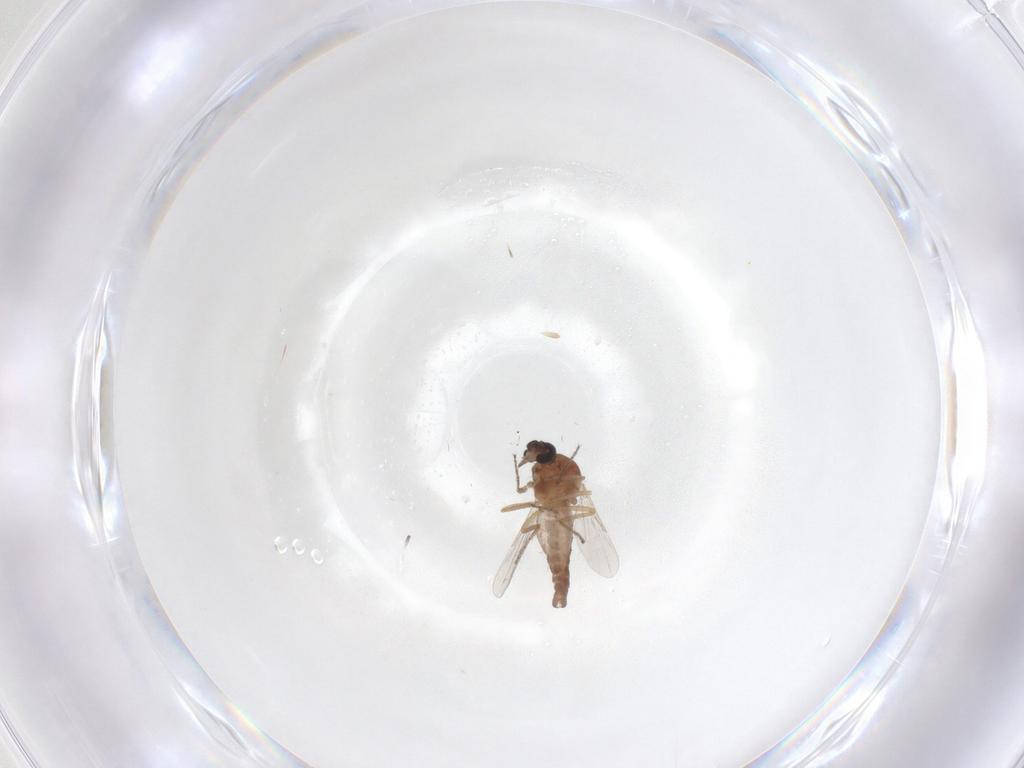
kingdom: Animalia
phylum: Arthropoda
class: Insecta
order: Diptera
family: Ceratopogonidae
